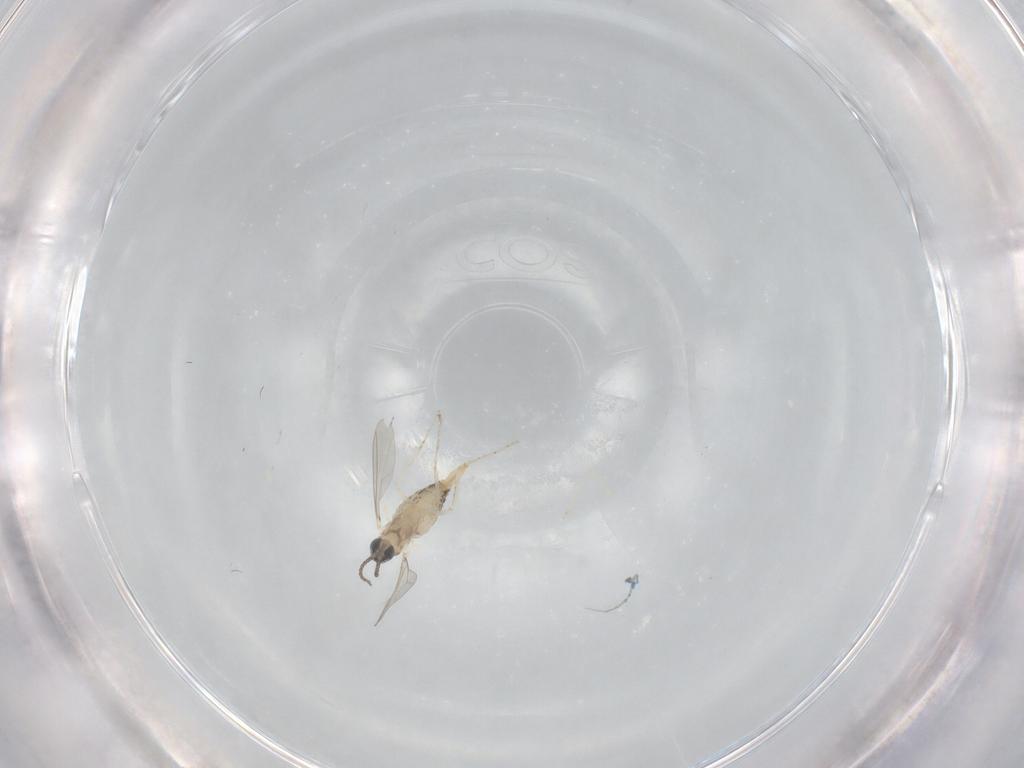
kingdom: Animalia
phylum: Arthropoda
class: Insecta
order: Diptera
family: Cecidomyiidae
